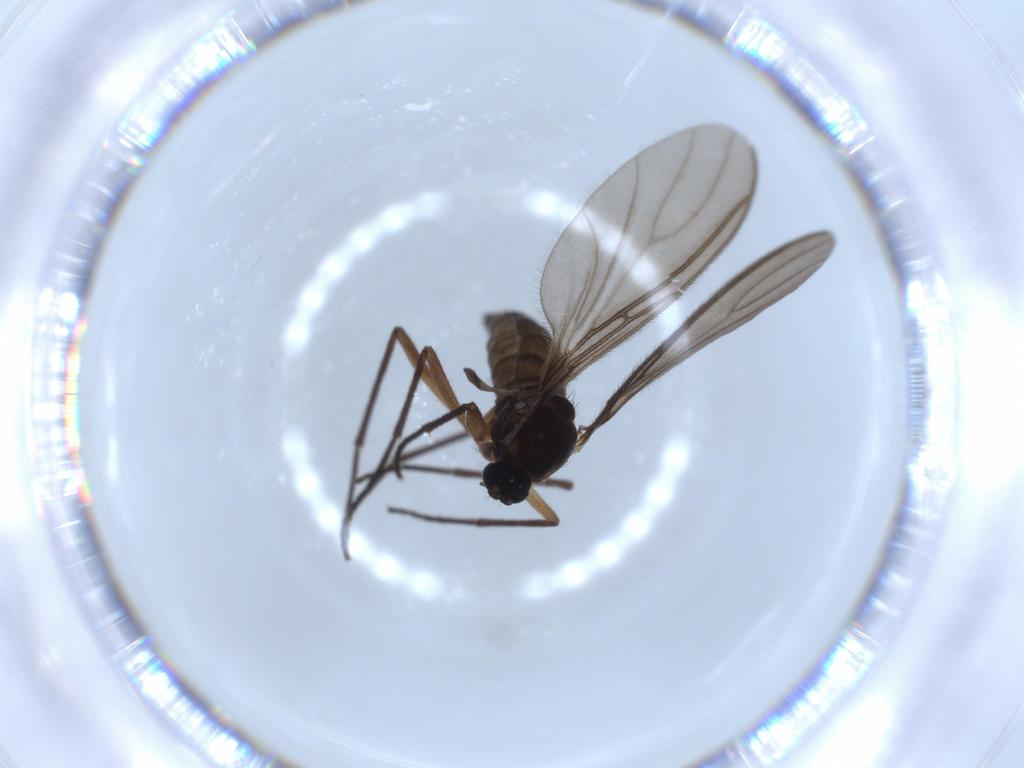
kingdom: Animalia
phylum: Arthropoda
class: Insecta
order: Diptera
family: Sciaridae
